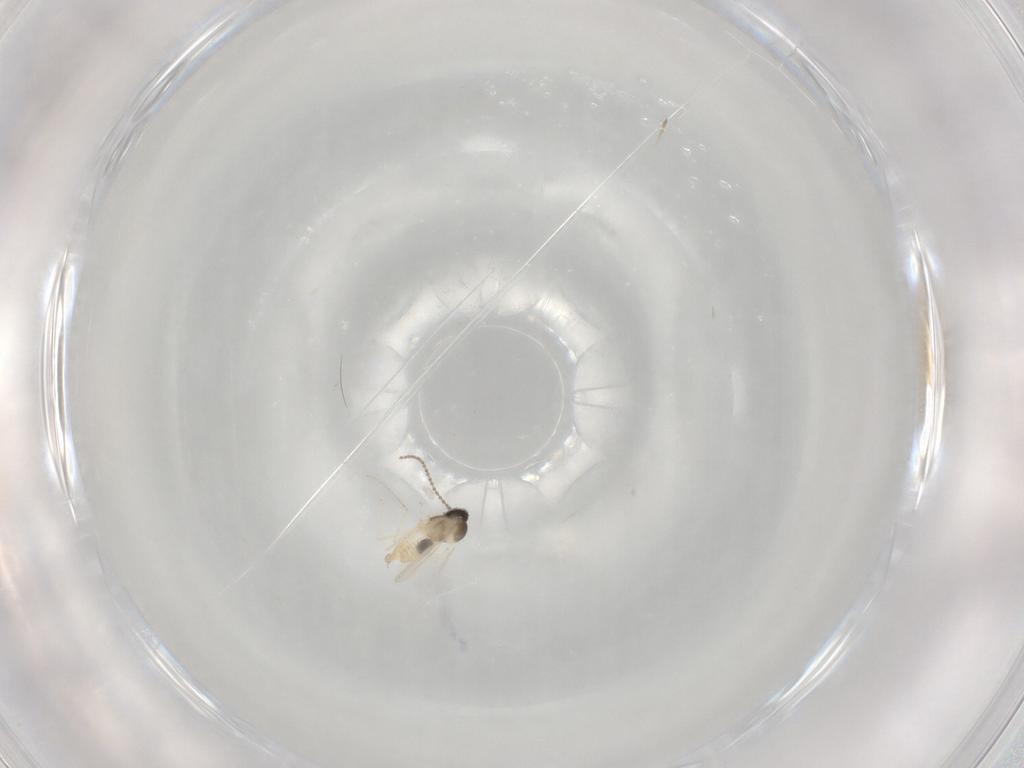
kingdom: Animalia
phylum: Arthropoda
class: Insecta
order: Diptera
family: Cecidomyiidae
